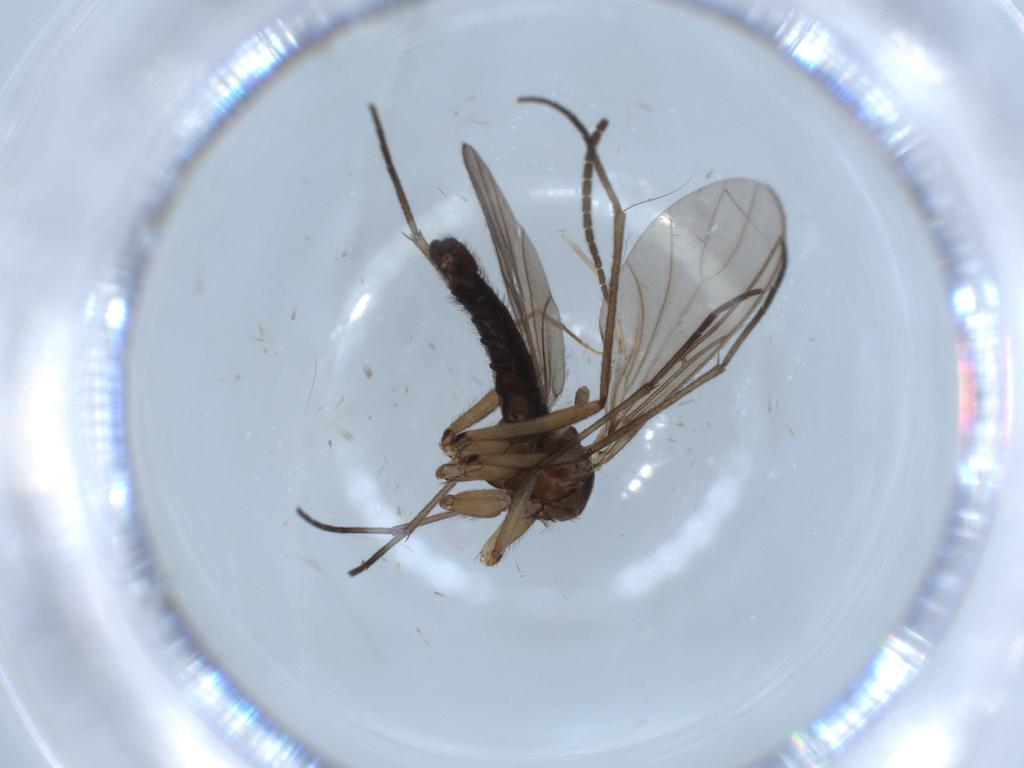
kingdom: Animalia
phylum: Arthropoda
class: Insecta
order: Diptera
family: Sciaridae
